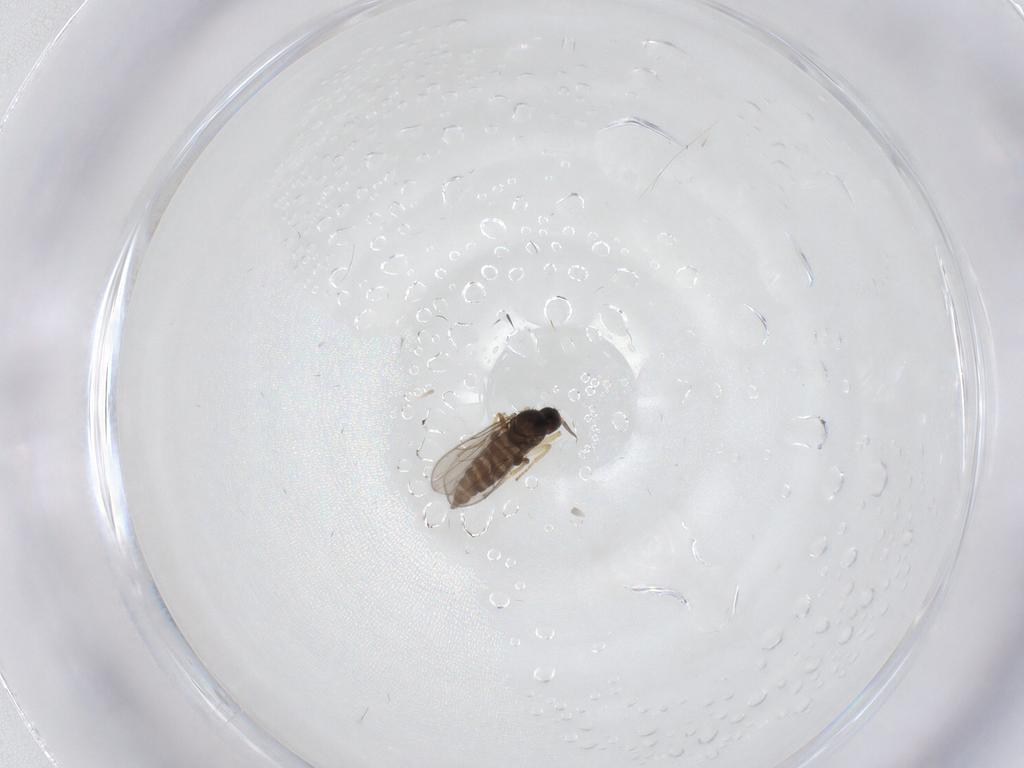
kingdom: Animalia
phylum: Arthropoda
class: Insecta
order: Diptera
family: Hybotidae
